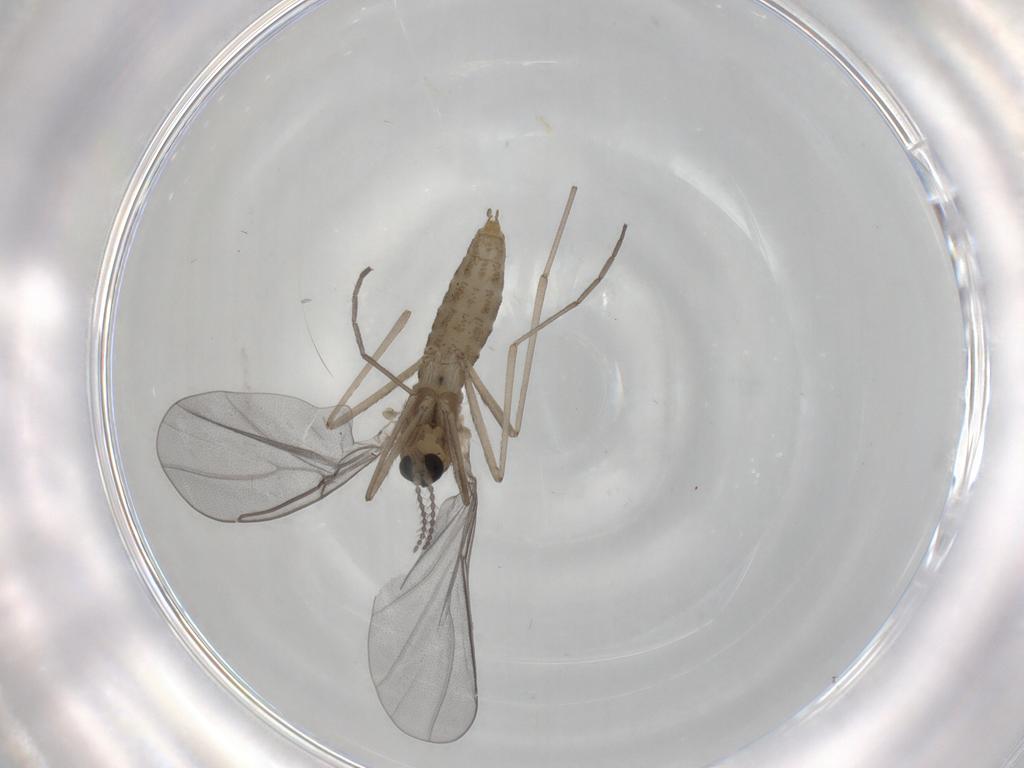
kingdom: Animalia
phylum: Arthropoda
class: Insecta
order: Diptera
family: Cecidomyiidae
